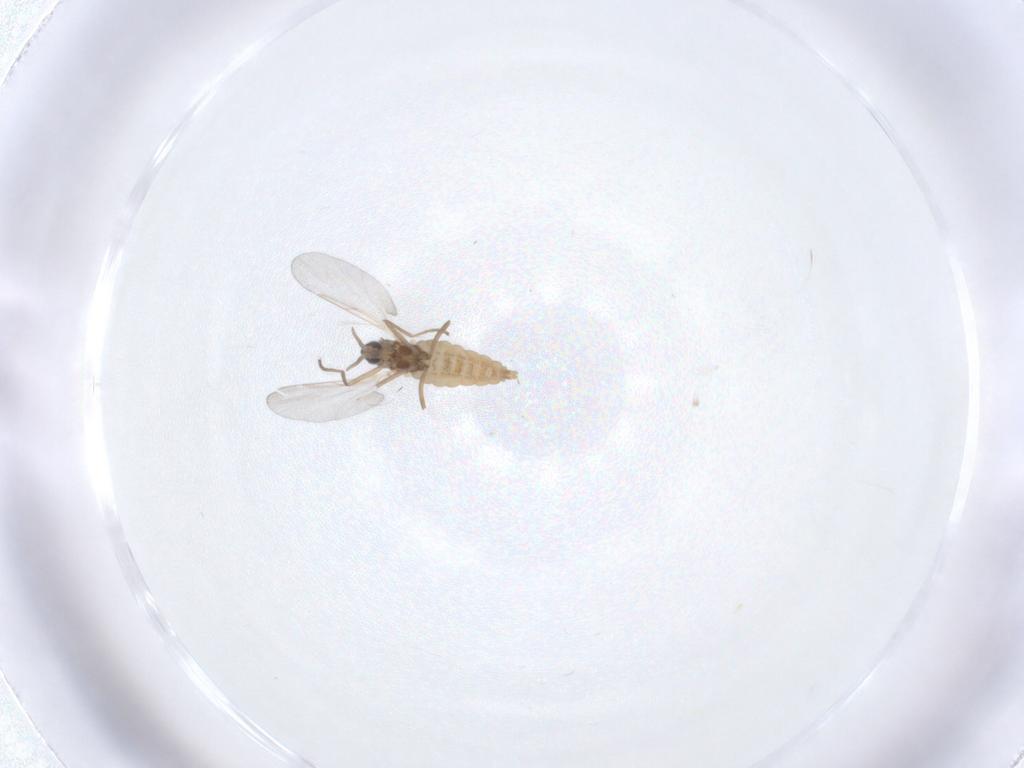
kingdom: Animalia
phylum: Arthropoda
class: Insecta
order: Diptera
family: Cecidomyiidae
